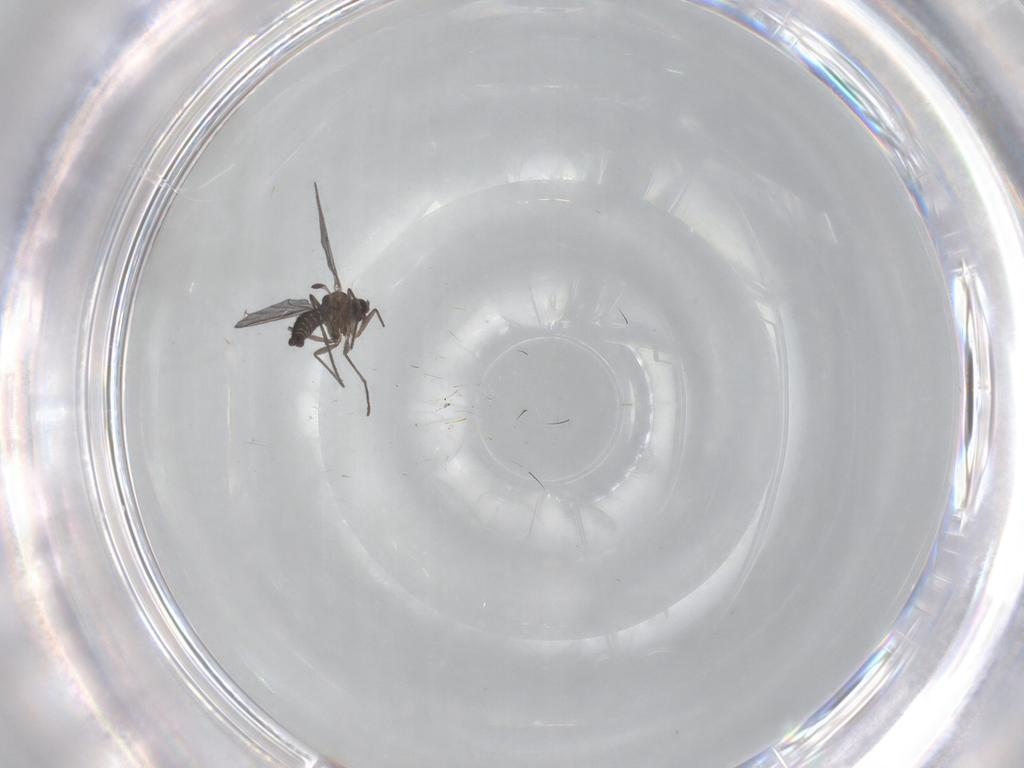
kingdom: Animalia
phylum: Arthropoda
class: Insecta
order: Diptera
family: Syrphidae
